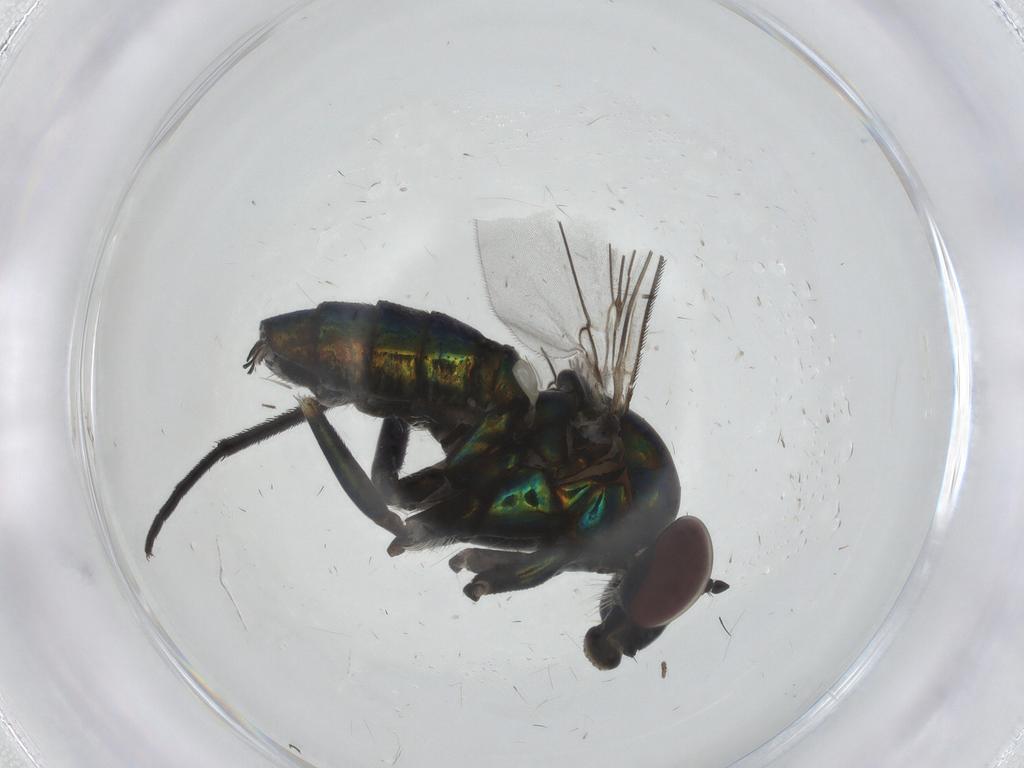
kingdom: Animalia
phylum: Arthropoda
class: Insecta
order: Diptera
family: Dolichopodidae
